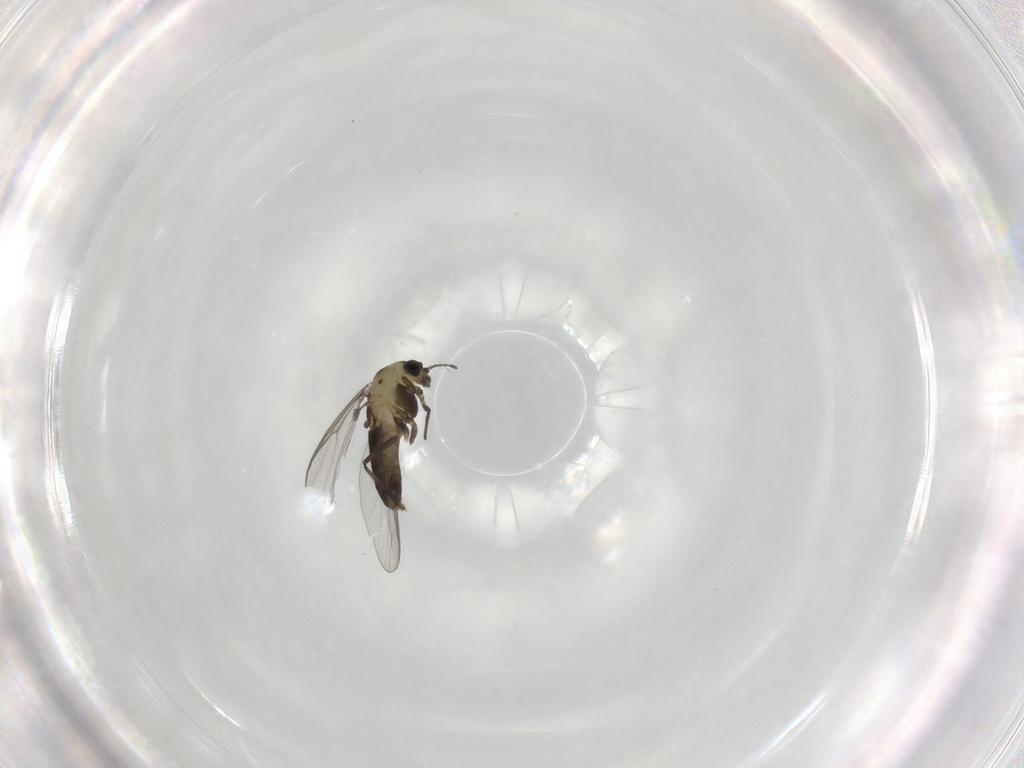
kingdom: Animalia
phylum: Arthropoda
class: Insecta
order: Diptera
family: Chironomidae
